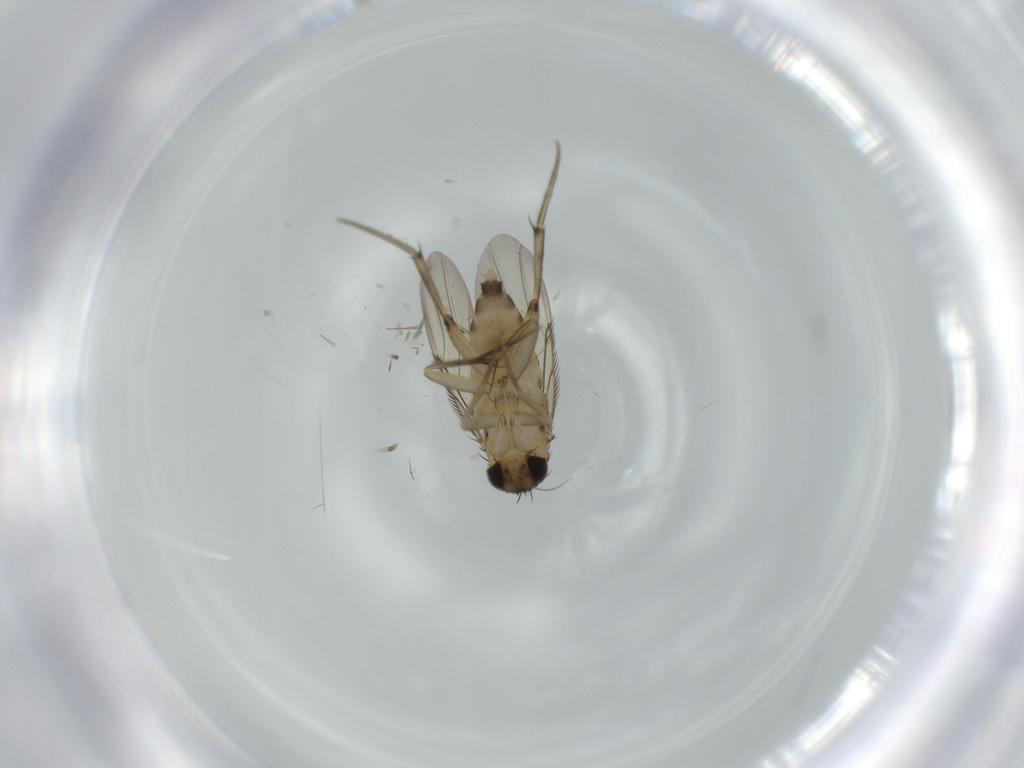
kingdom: Animalia
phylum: Arthropoda
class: Insecta
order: Diptera
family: Phoridae
